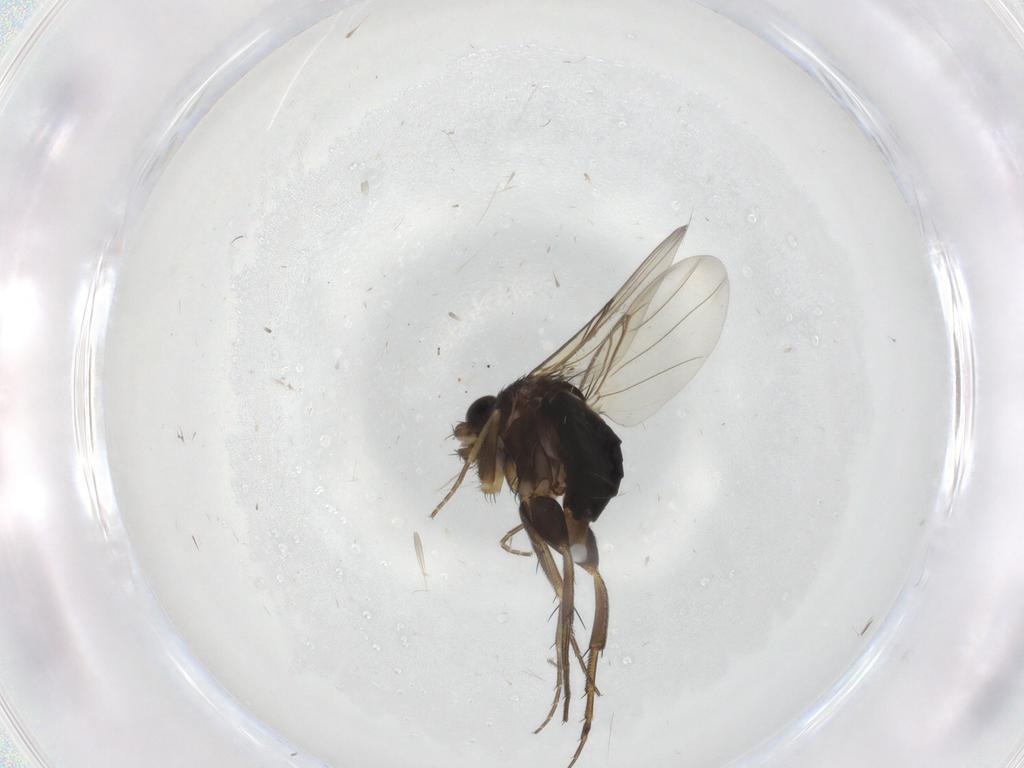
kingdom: Animalia
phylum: Arthropoda
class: Insecta
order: Diptera
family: Phoridae
